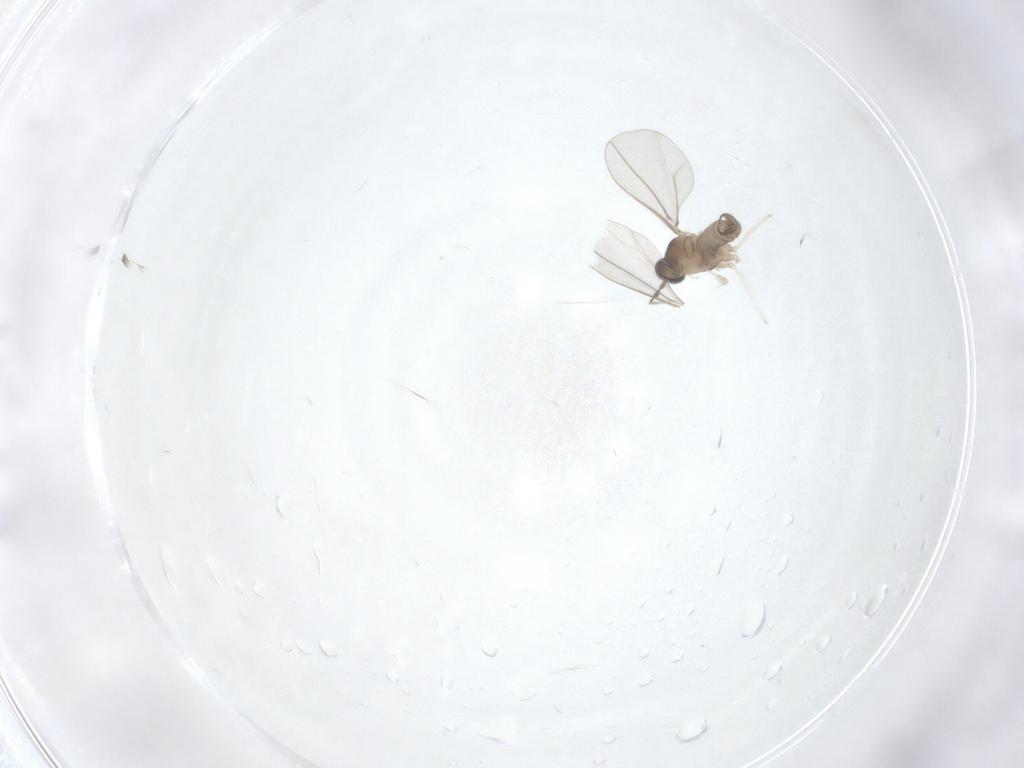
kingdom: Animalia
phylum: Arthropoda
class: Insecta
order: Diptera
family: Cecidomyiidae
